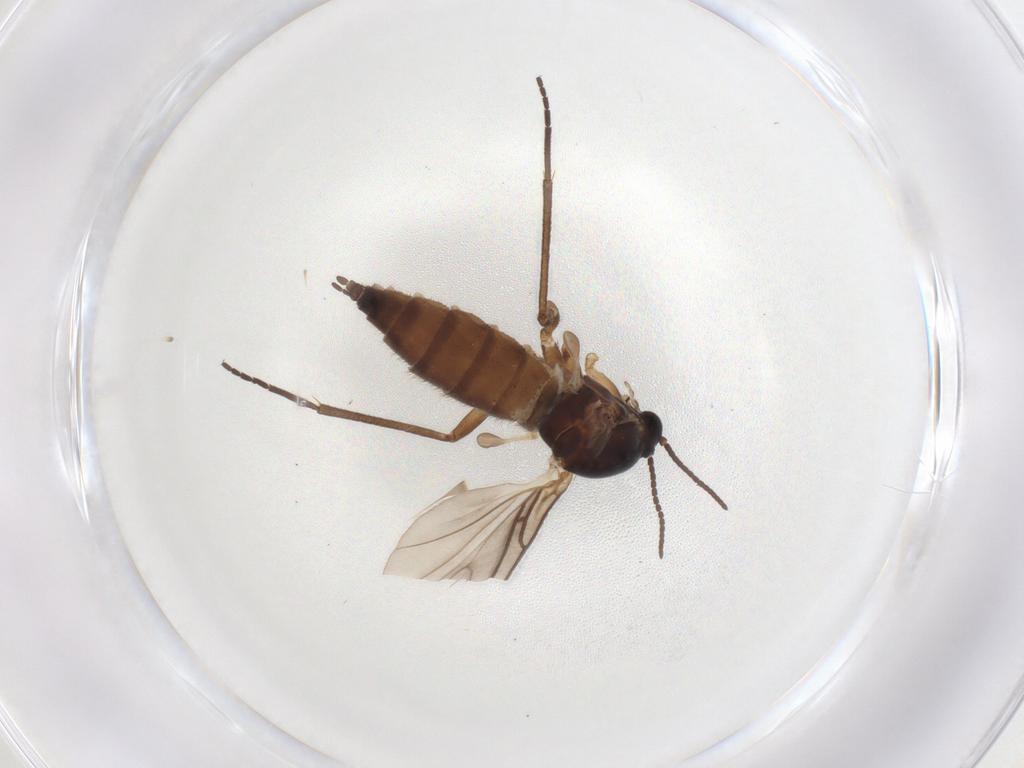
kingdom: Animalia
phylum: Arthropoda
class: Insecta
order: Diptera
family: Sciaridae
